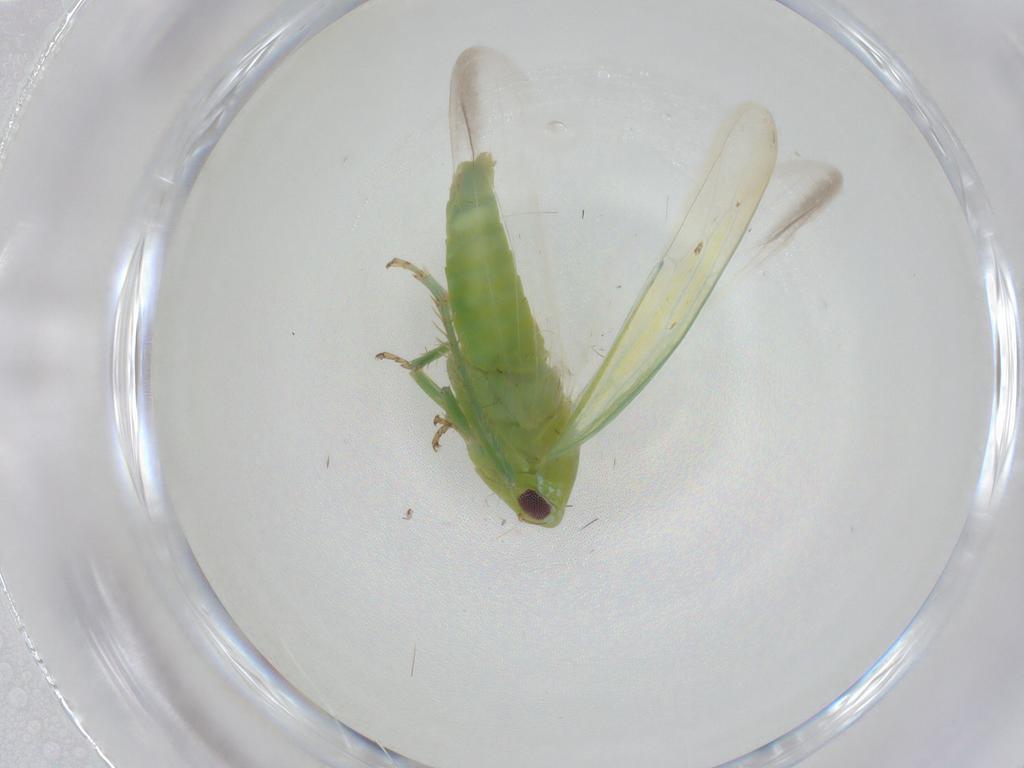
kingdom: Animalia
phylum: Arthropoda
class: Insecta
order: Hemiptera
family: Cicadellidae
